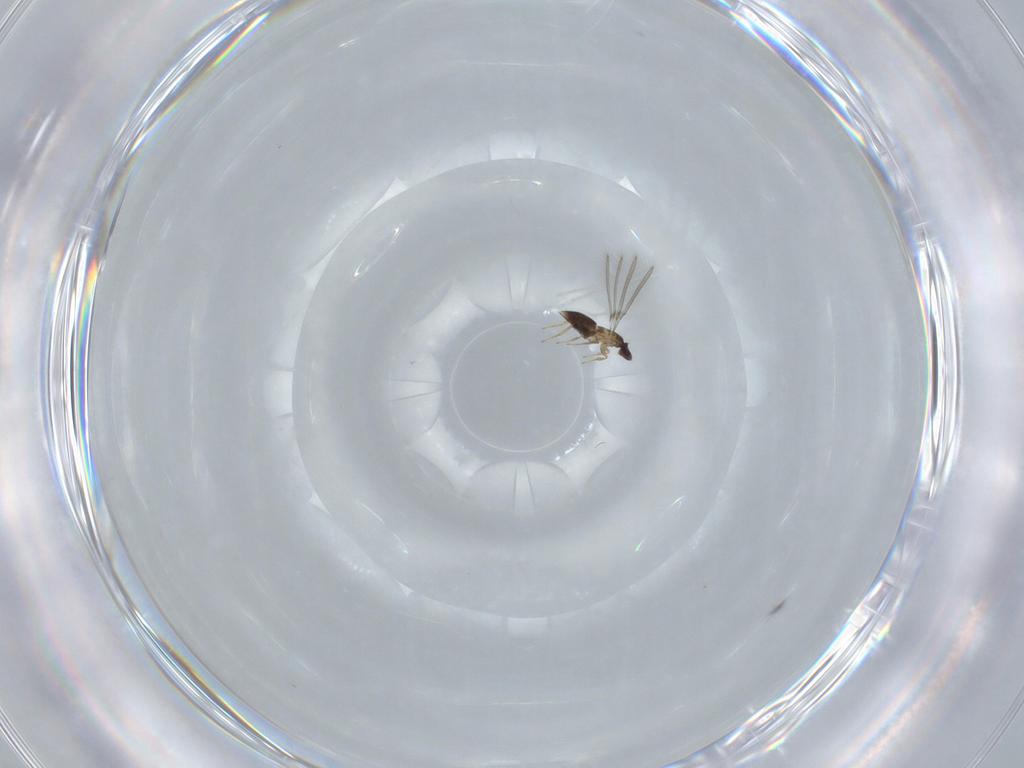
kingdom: Animalia
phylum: Arthropoda
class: Insecta
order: Hymenoptera
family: Mymaridae
